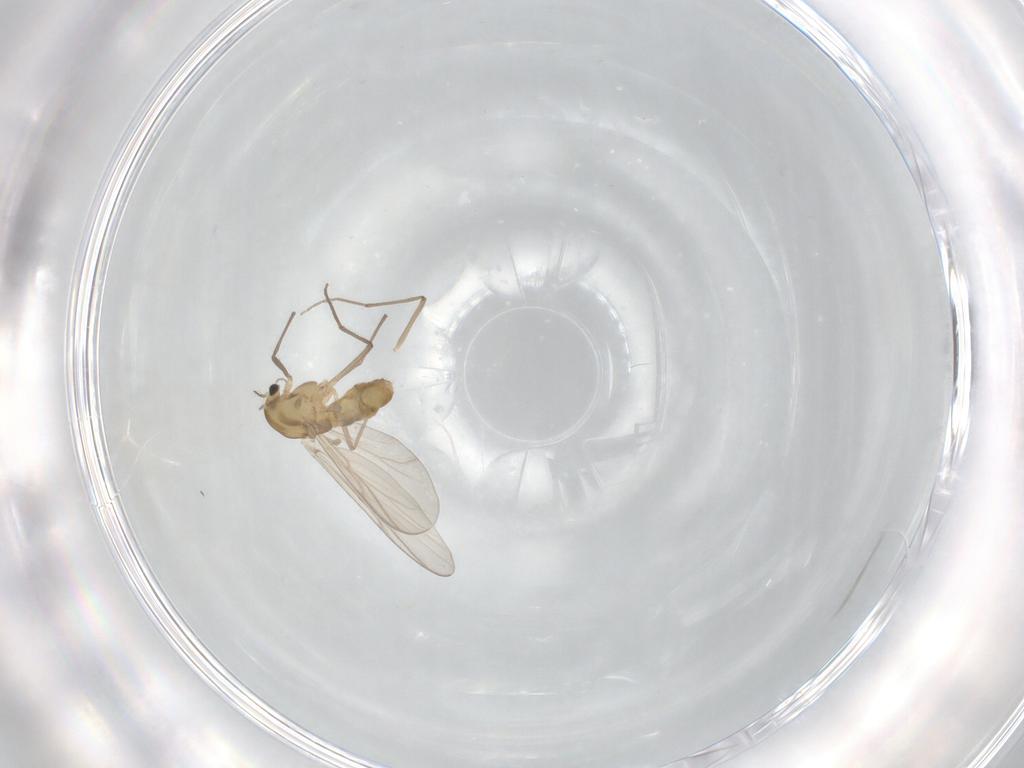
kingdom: Animalia
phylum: Arthropoda
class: Insecta
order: Diptera
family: Chironomidae
